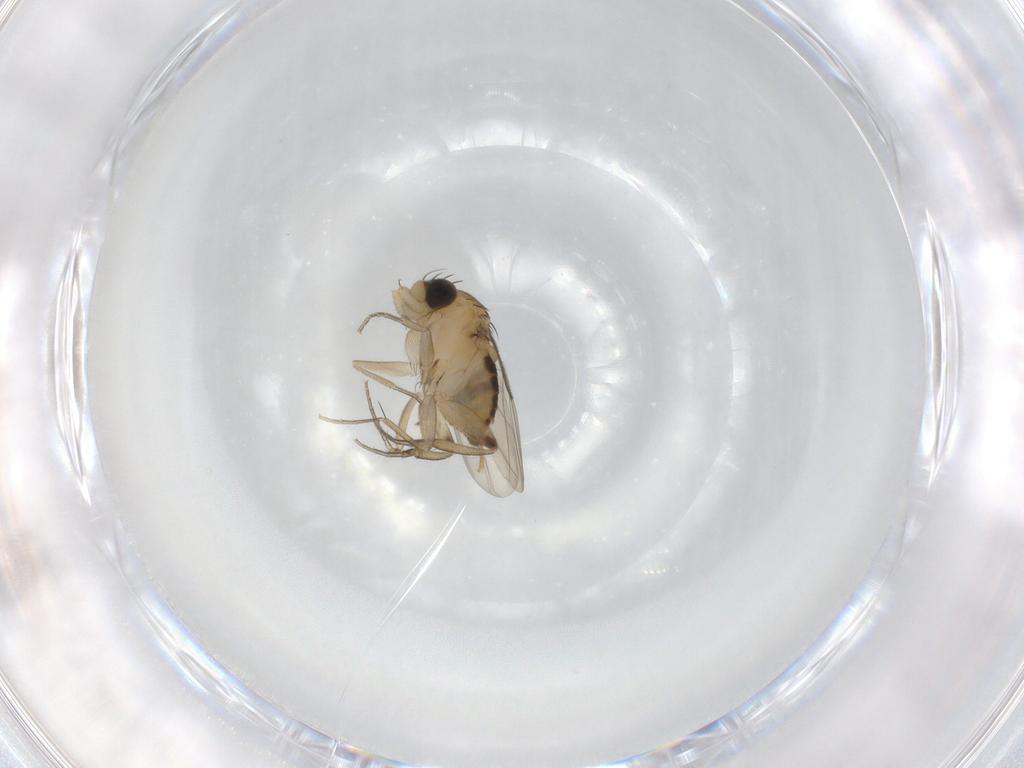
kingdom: Animalia
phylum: Arthropoda
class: Insecta
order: Diptera
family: Phoridae
